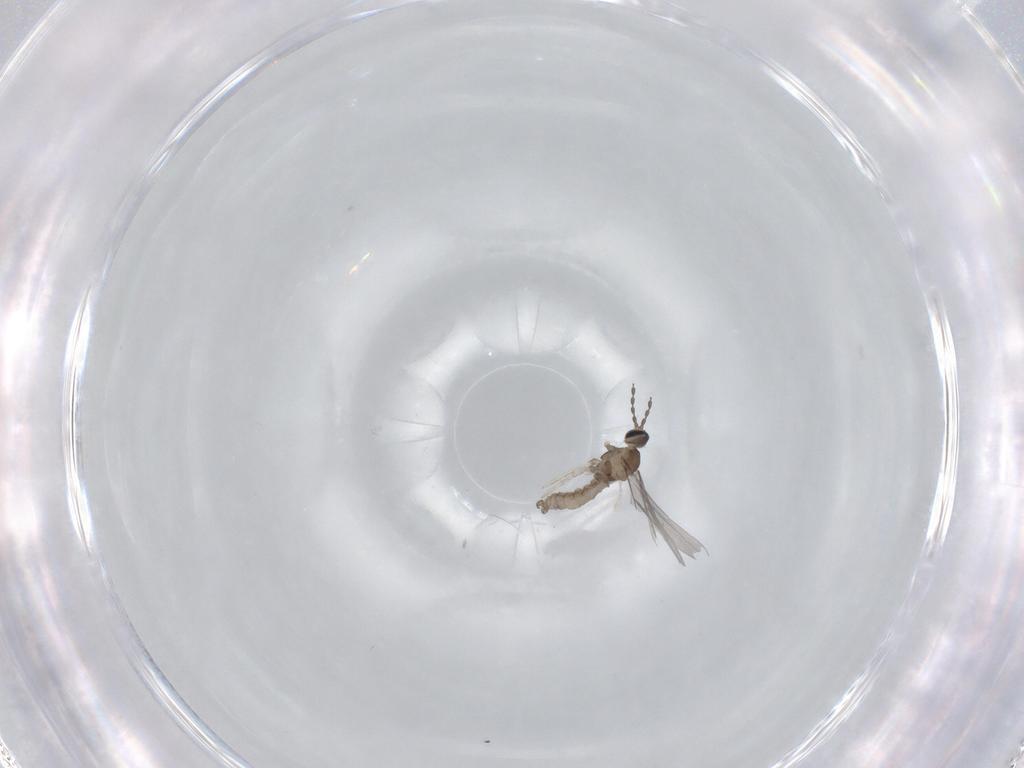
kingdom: Animalia
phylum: Arthropoda
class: Insecta
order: Diptera
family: Cecidomyiidae
